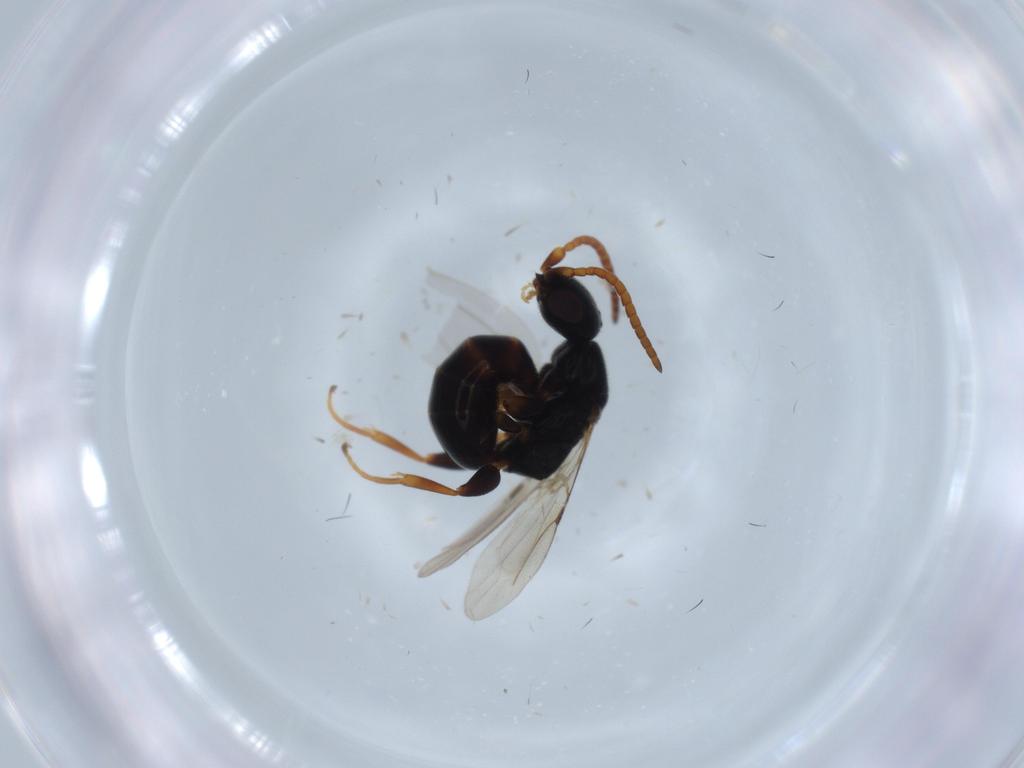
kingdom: Animalia
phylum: Arthropoda
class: Insecta
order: Hymenoptera
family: Bethylidae
